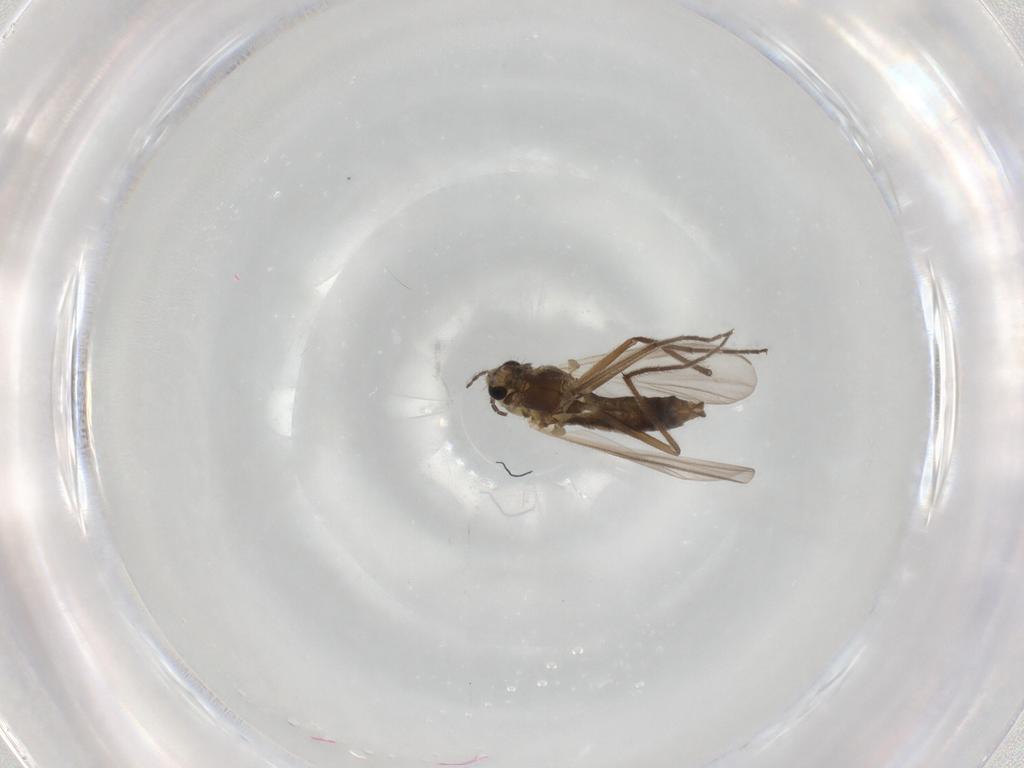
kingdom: Animalia
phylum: Arthropoda
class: Insecta
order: Diptera
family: Chironomidae
